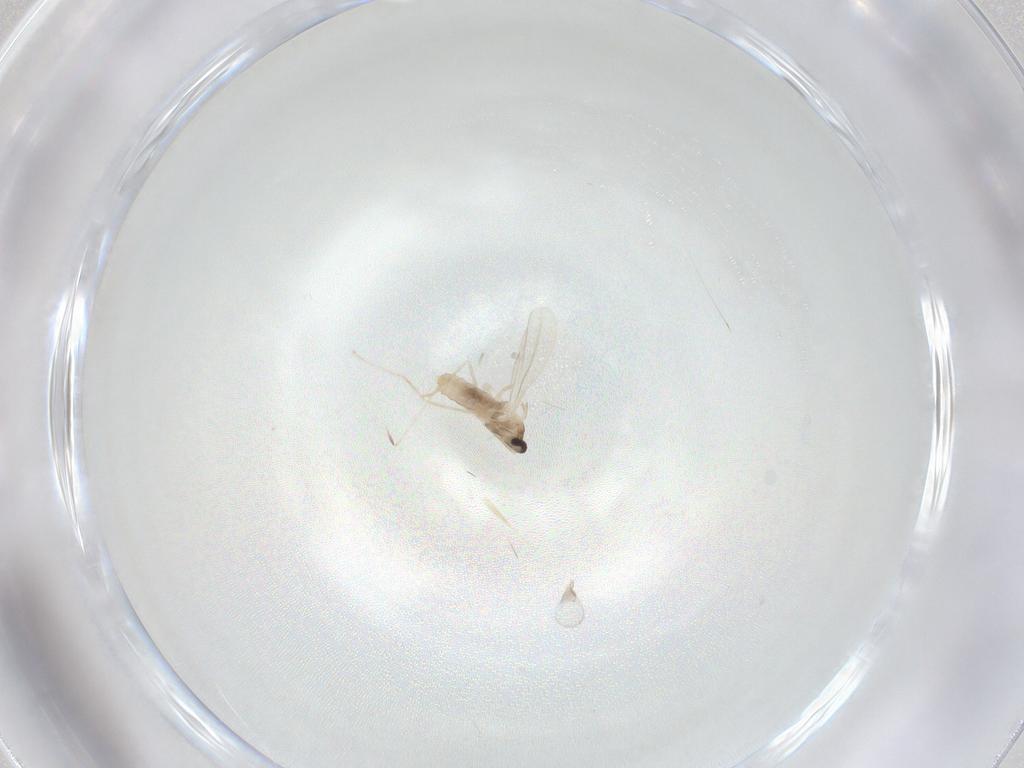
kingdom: Animalia
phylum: Arthropoda
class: Insecta
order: Diptera
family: Cecidomyiidae
